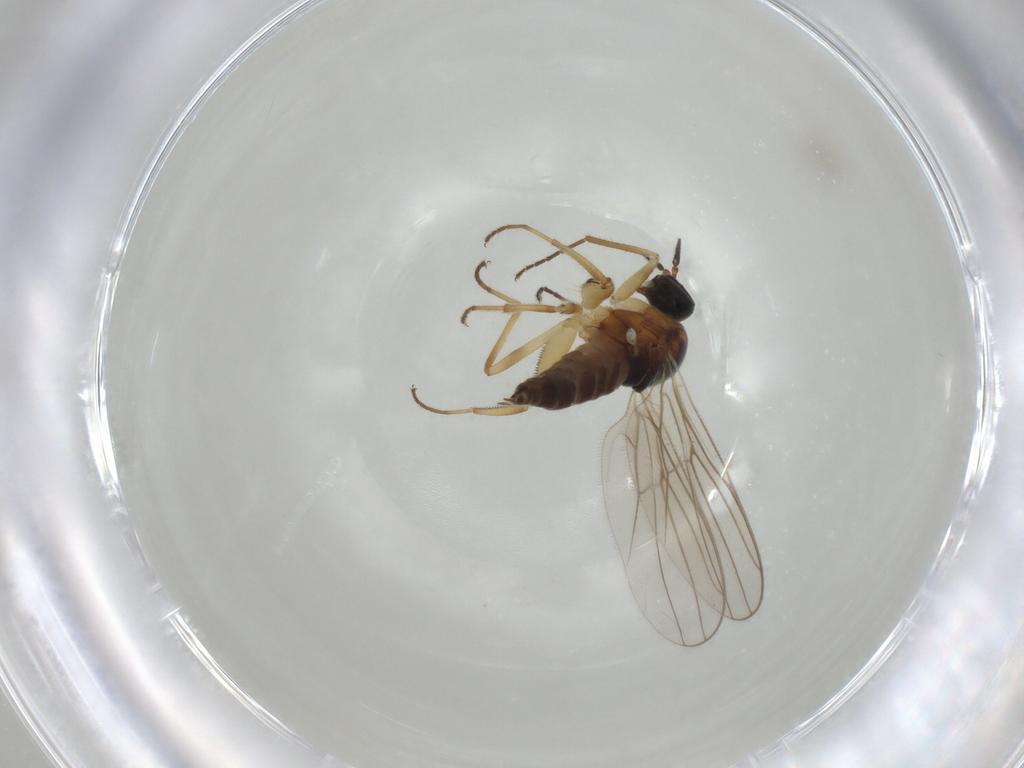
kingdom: Animalia
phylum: Arthropoda
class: Insecta
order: Diptera
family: Hybotidae
